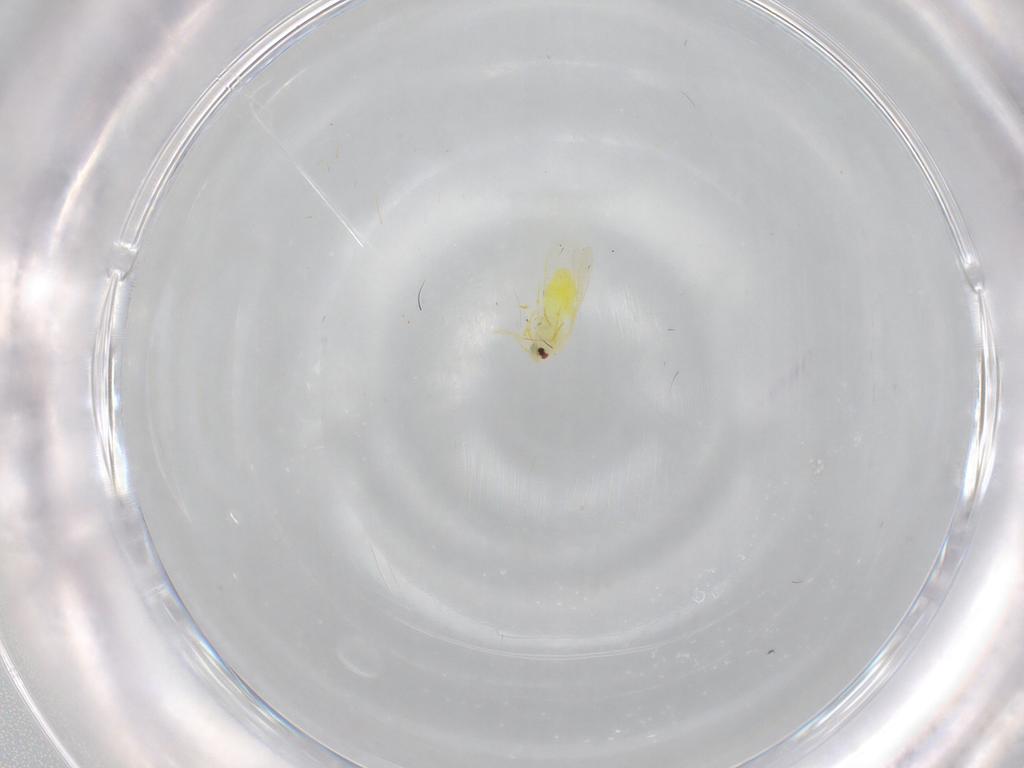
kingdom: Animalia
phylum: Arthropoda
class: Insecta
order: Hemiptera
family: Aleyrodidae
